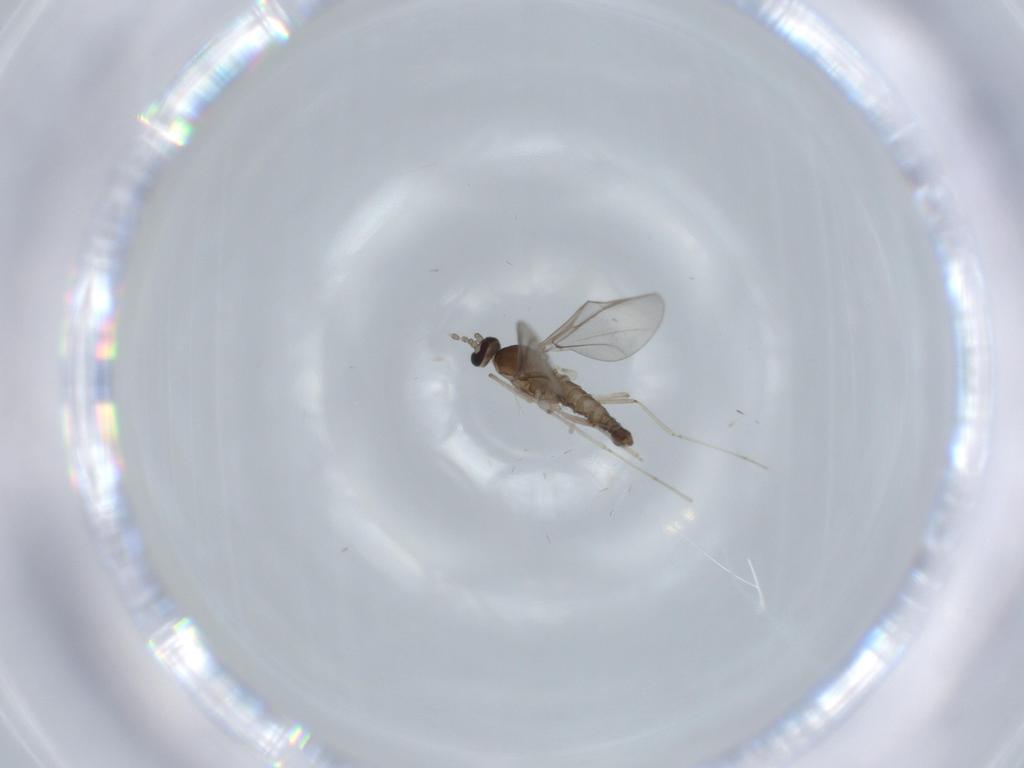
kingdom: Animalia
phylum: Arthropoda
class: Insecta
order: Diptera
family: Cecidomyiidae
